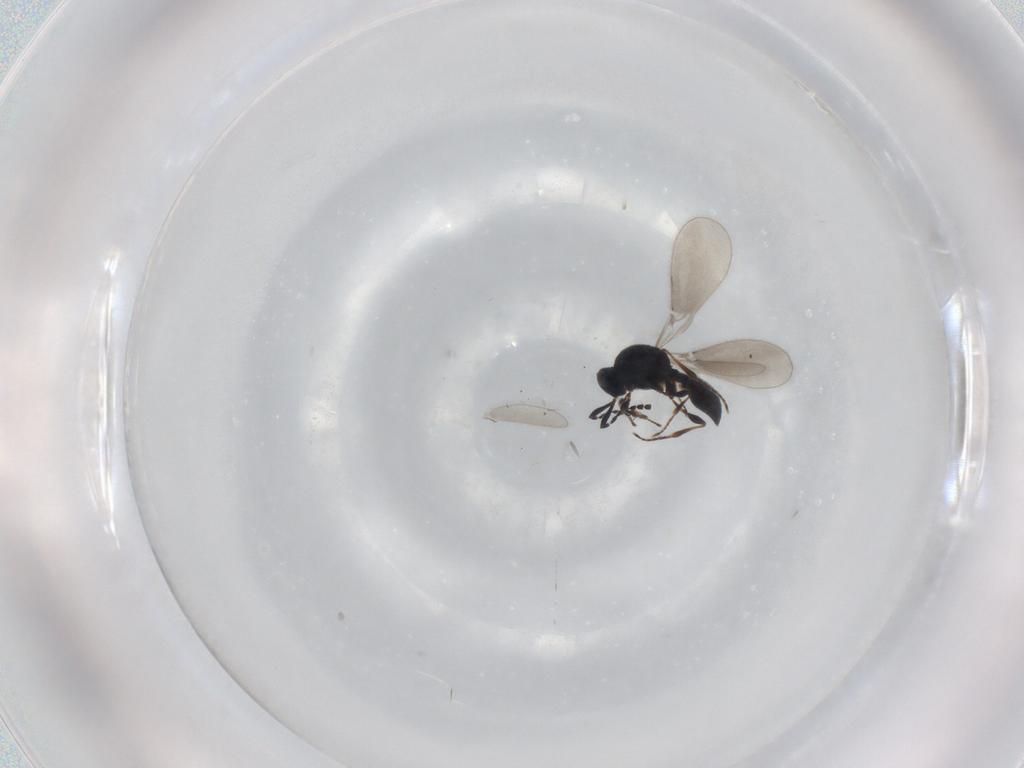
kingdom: Animalia
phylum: Arthropoda
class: Insecta
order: Hymenoptera
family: Platygastridae
